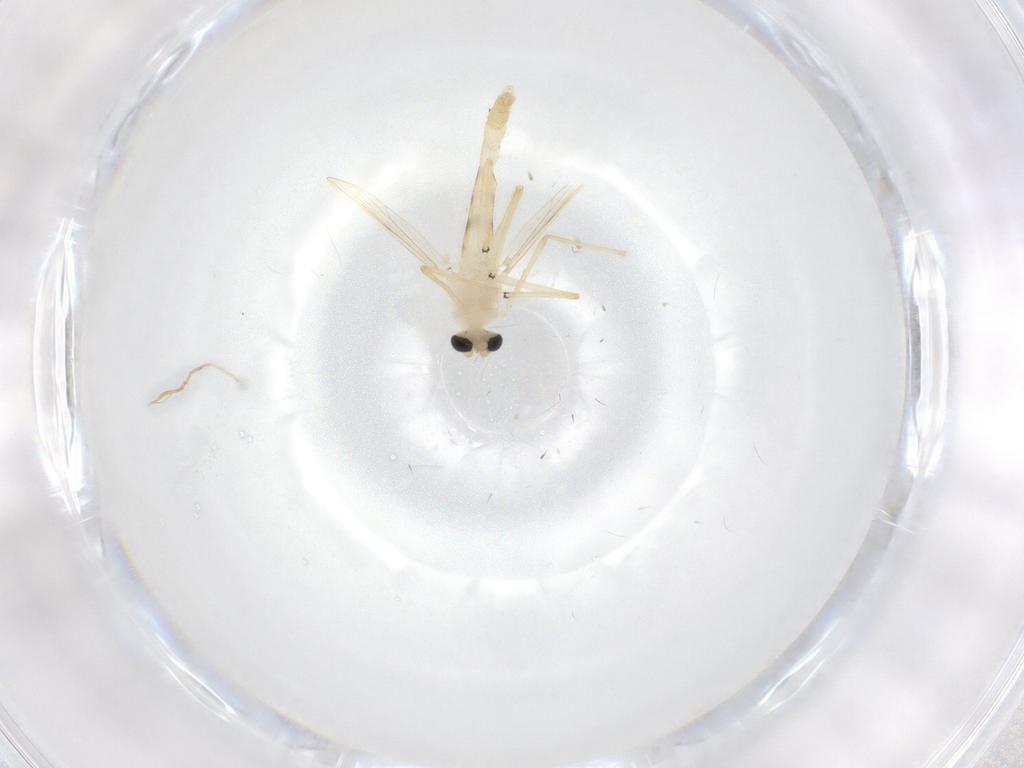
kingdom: Animalia
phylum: Arthropoda
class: Insecta
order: Diptera
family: Chironomidae
